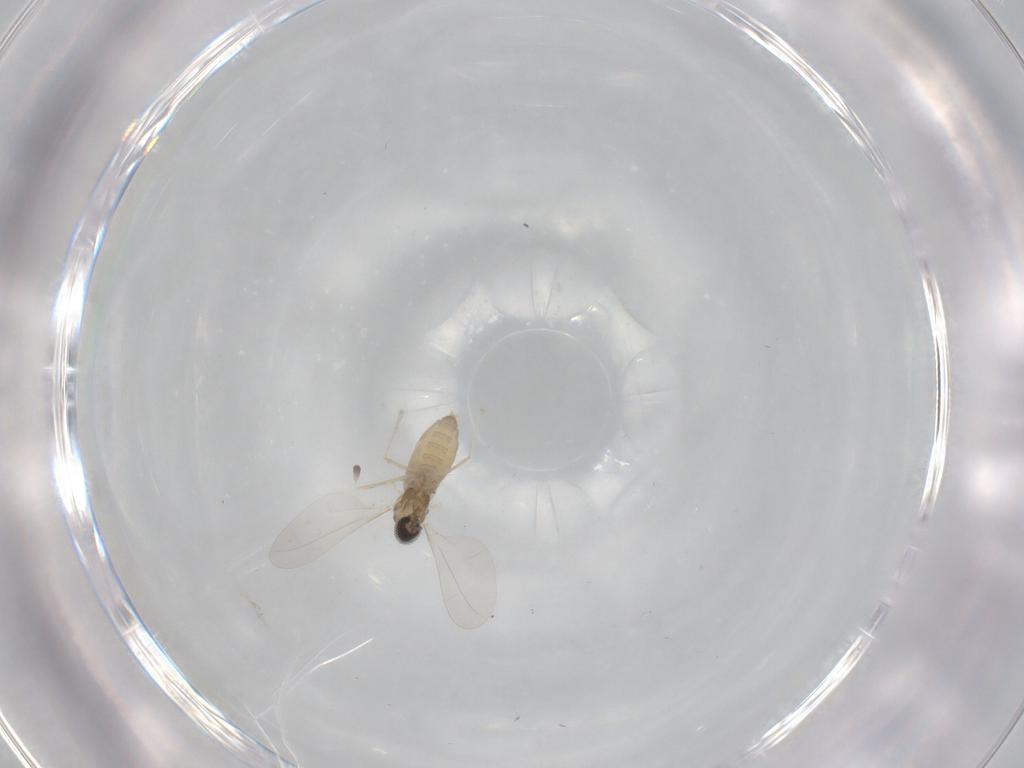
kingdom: Animalia
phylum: Arthropoda
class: Insecta
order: Diptera
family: Cecidomyiidae
